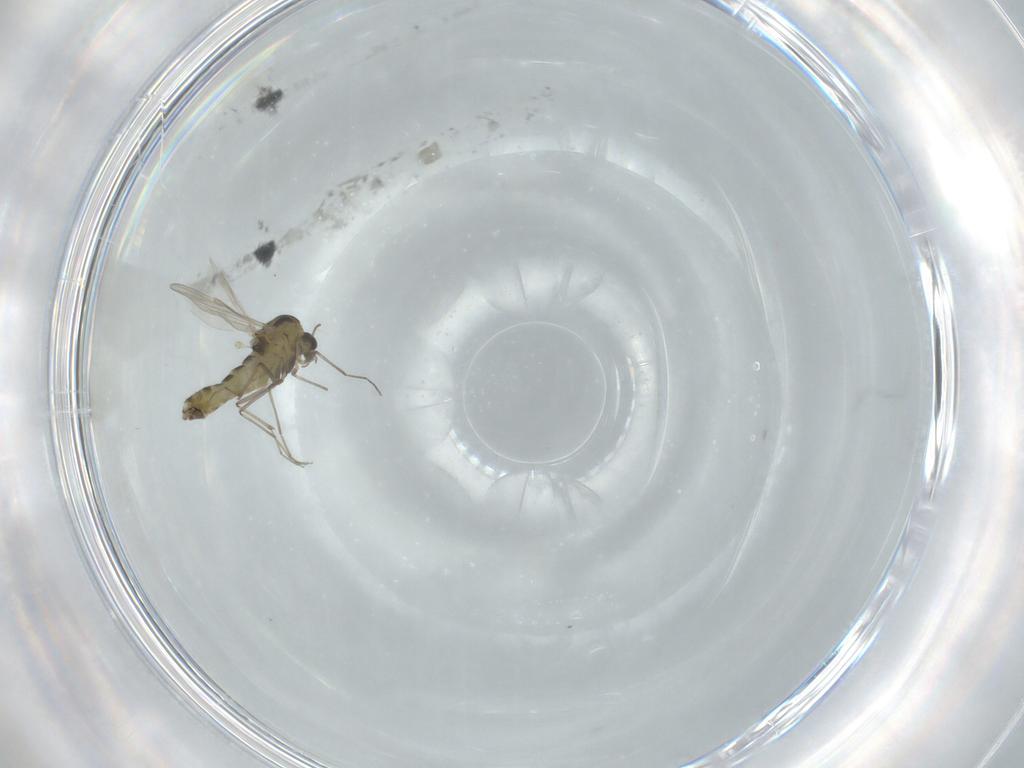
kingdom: Animalia
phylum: Arthropoda
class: Insecta
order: Diptera
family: Chironomidae
